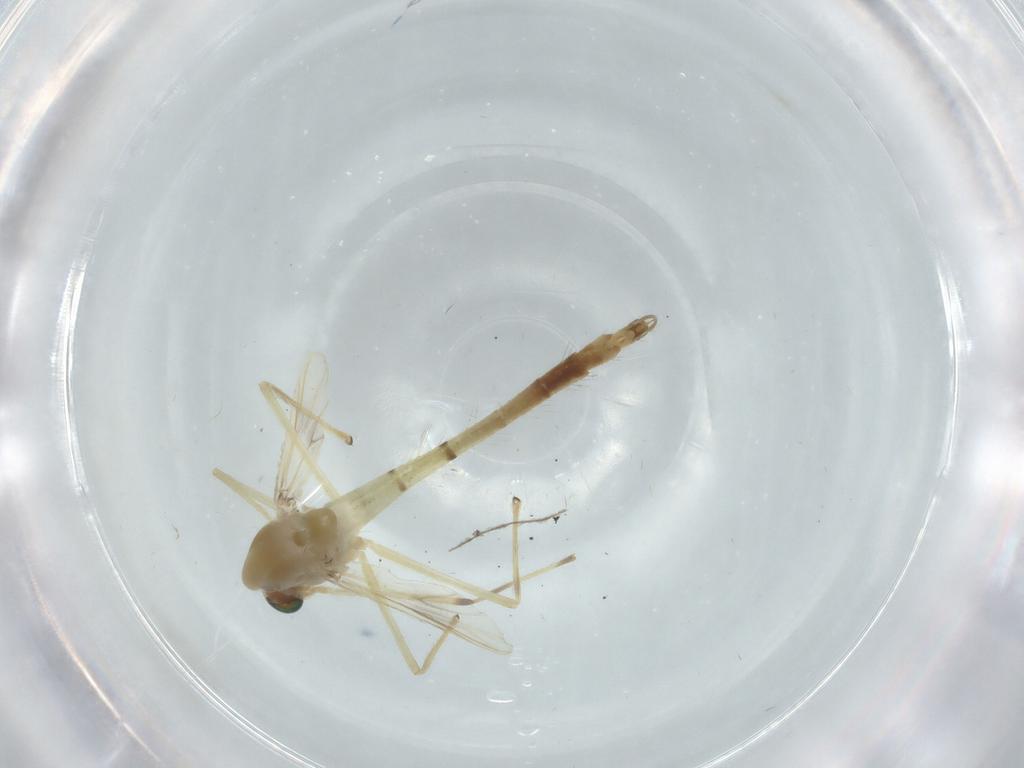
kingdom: Animalia
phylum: Arthropoda
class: Insecta
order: Diptera
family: Chironomidae
